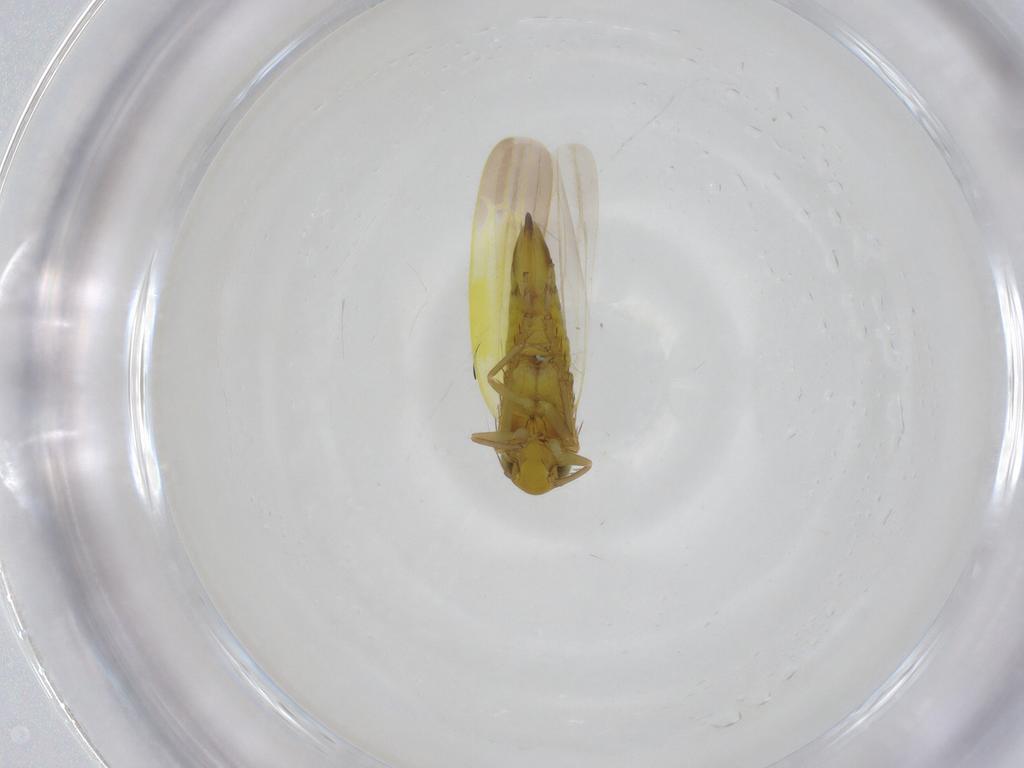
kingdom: Animalia
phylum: Arthropoda
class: Insecta
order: Hemiptera
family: Cicadellidae
